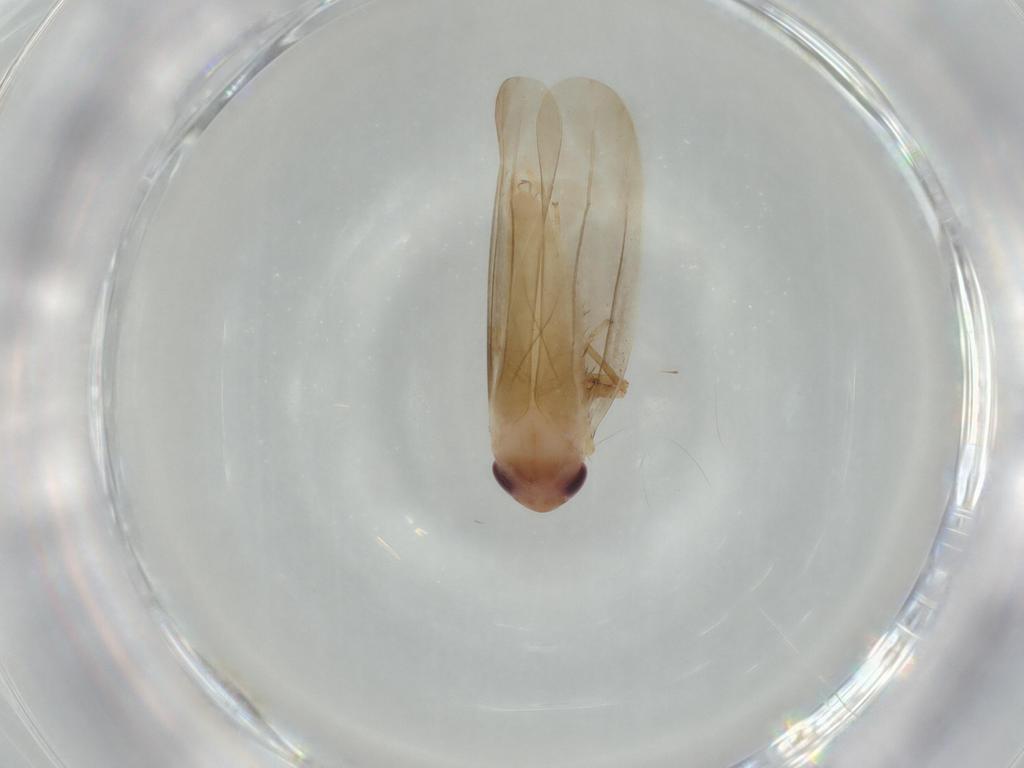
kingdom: Animalia
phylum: Arthropoda
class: Insecta
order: Hemiptera
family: Cicadellidae
